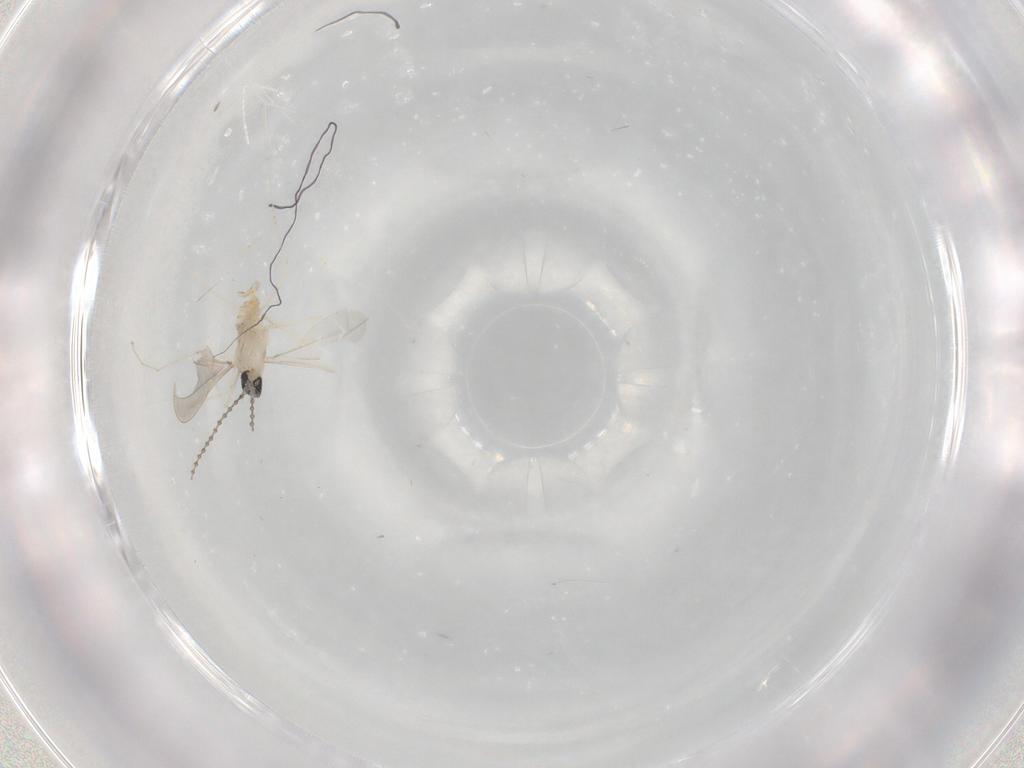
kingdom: Animalia
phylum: Arthropoda
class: Insecta
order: Diptera
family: Cecidomyiidae
